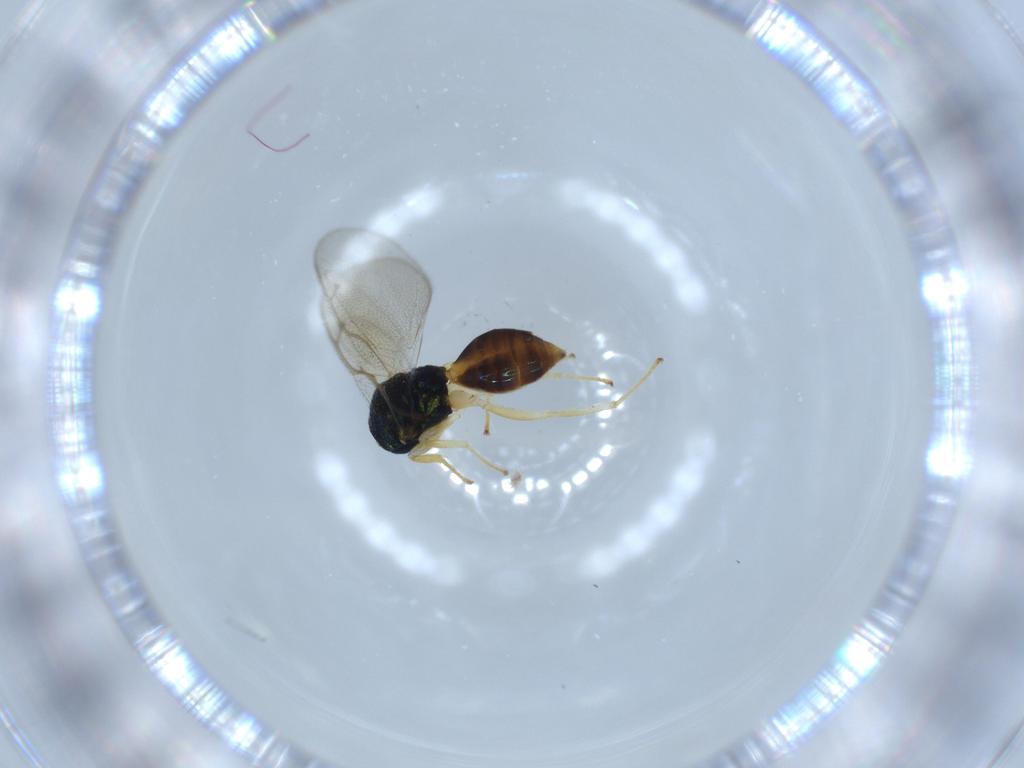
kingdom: Animalia
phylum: Arthropoda
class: Insecta
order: Hymenoptera
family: Pteromalidae
